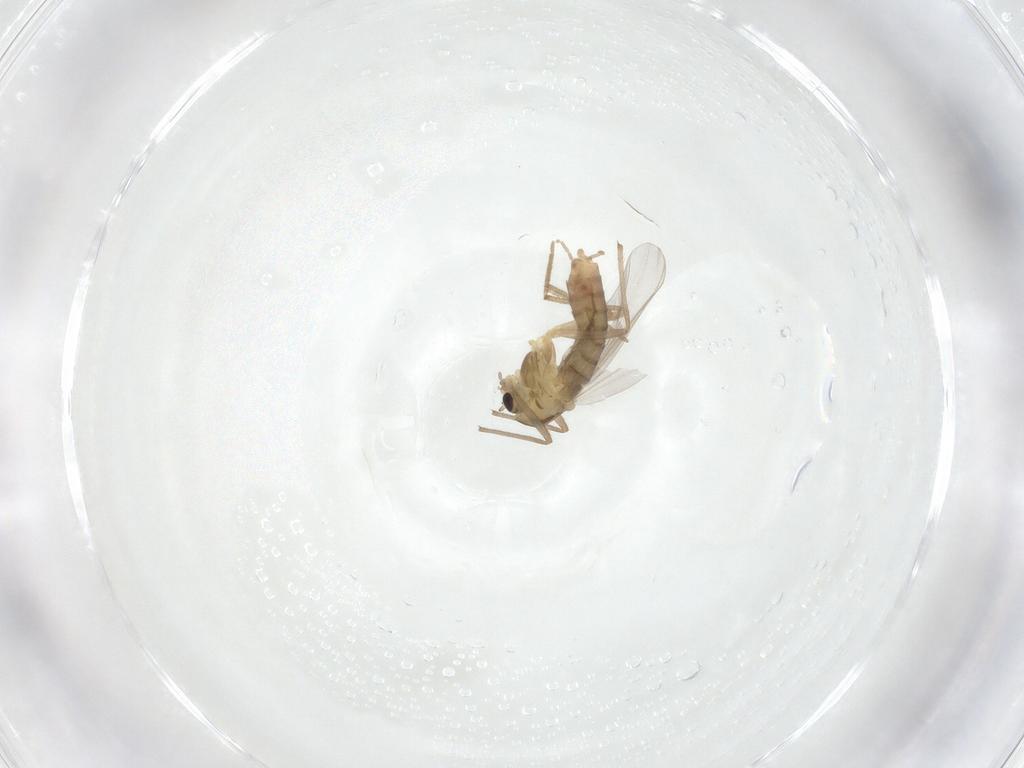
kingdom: Animalia
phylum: Arthropoda
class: Insecta
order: Diptera
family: Chironomidae
